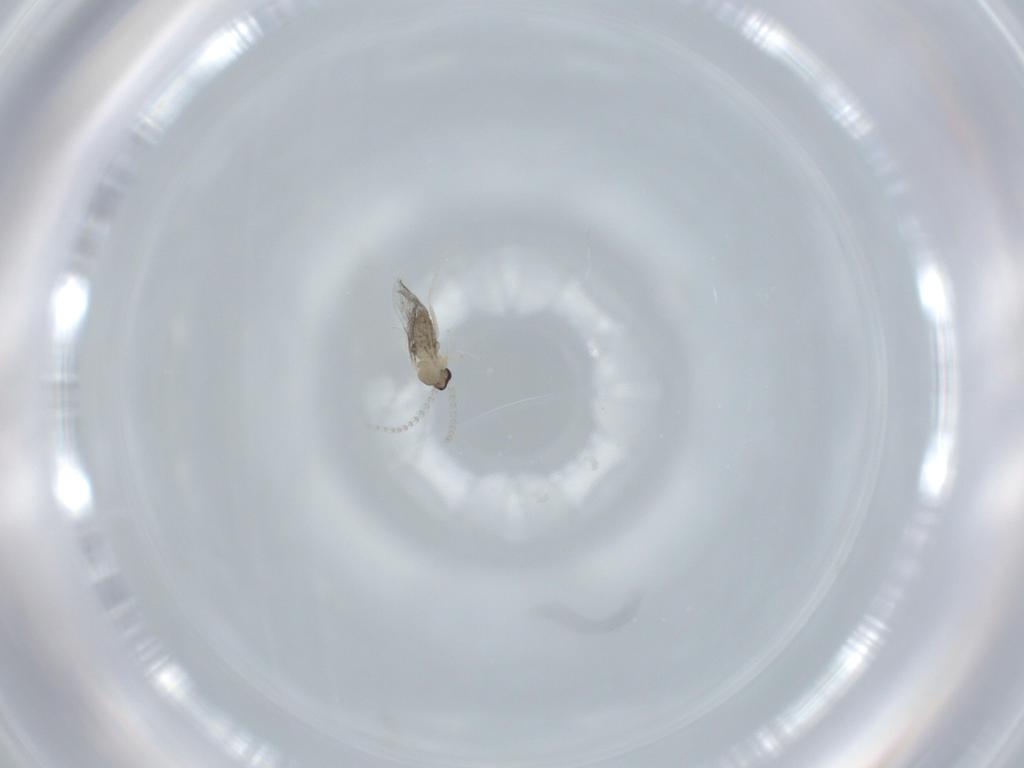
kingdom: Animalia
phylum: Arthropoda
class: Insecta
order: Diptera
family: Cecidomyiidae
